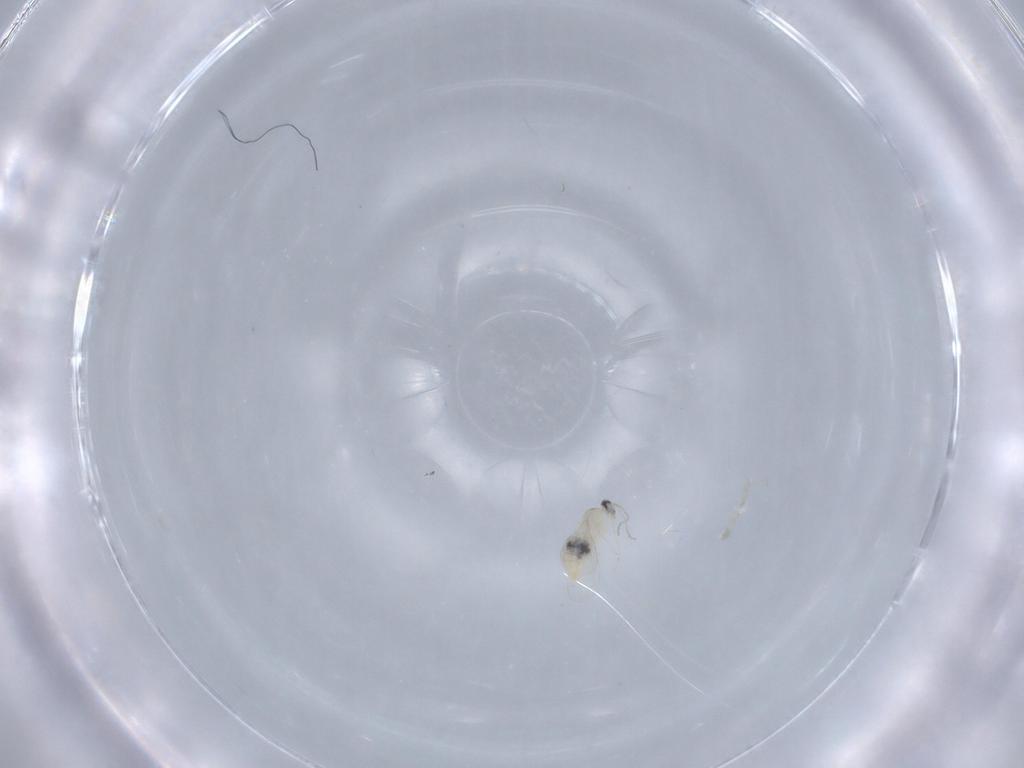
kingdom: Animalia
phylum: Arthropoda
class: Insecta
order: Diptera
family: Cecidomyiidae
